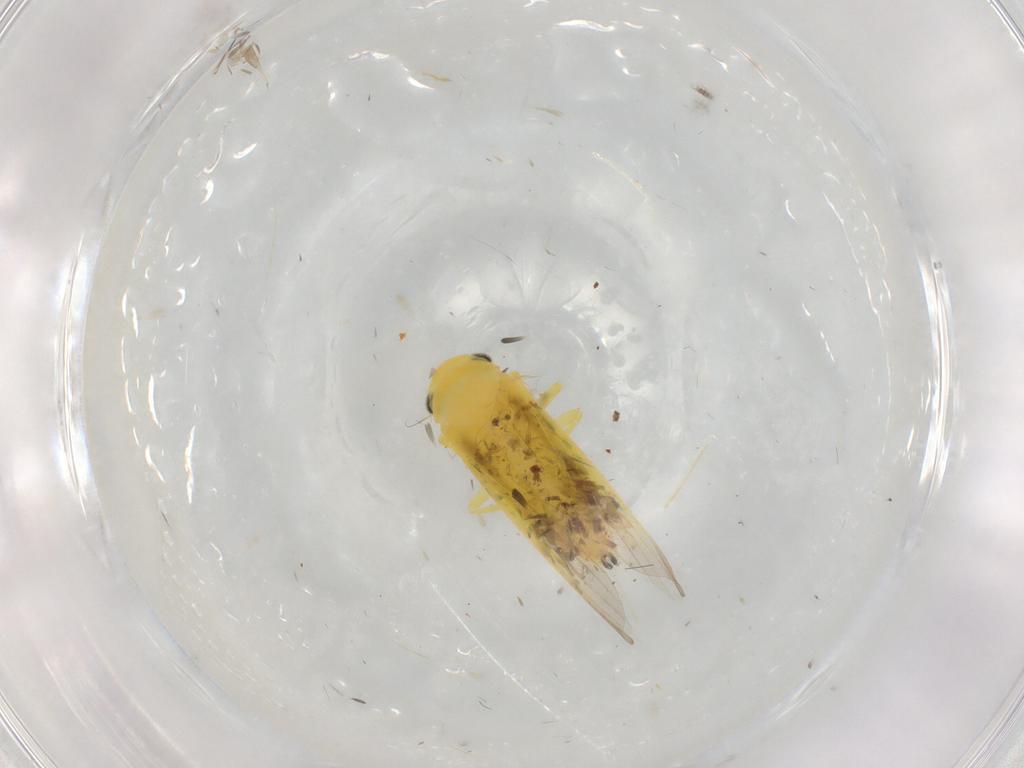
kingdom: Animalia
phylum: Arthropoda
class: Insecta
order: Hemiptera
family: Cicadellidae
